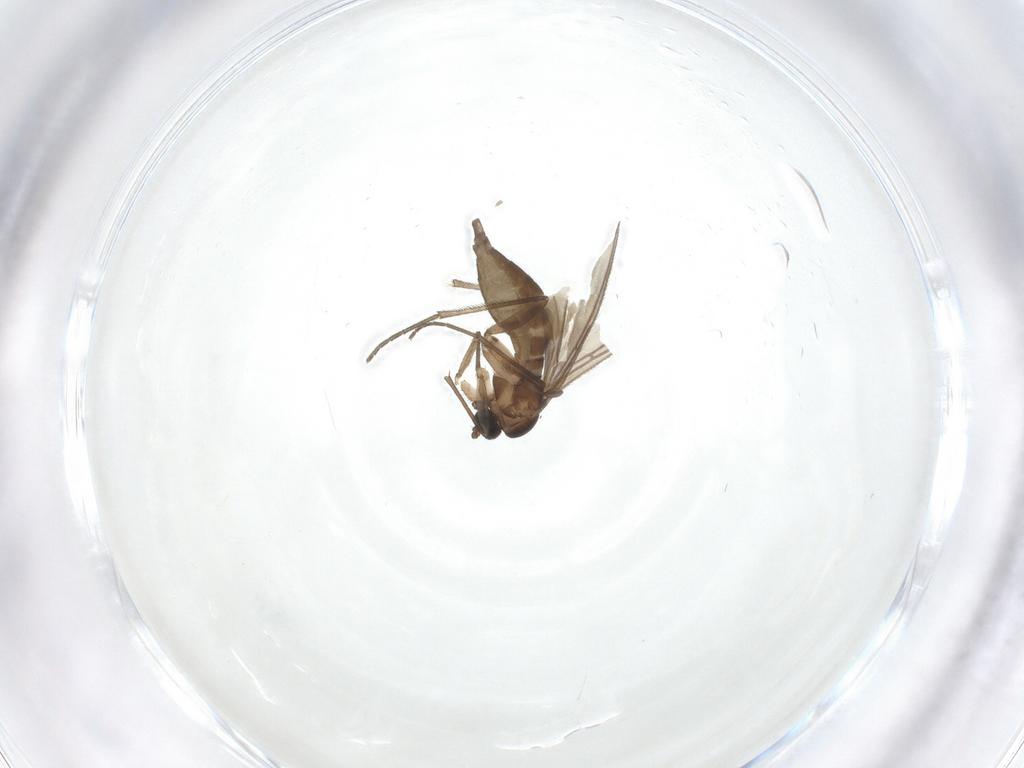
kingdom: Animalia
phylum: Arthropoda
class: Insecta
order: Diptera
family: Sciaridae
